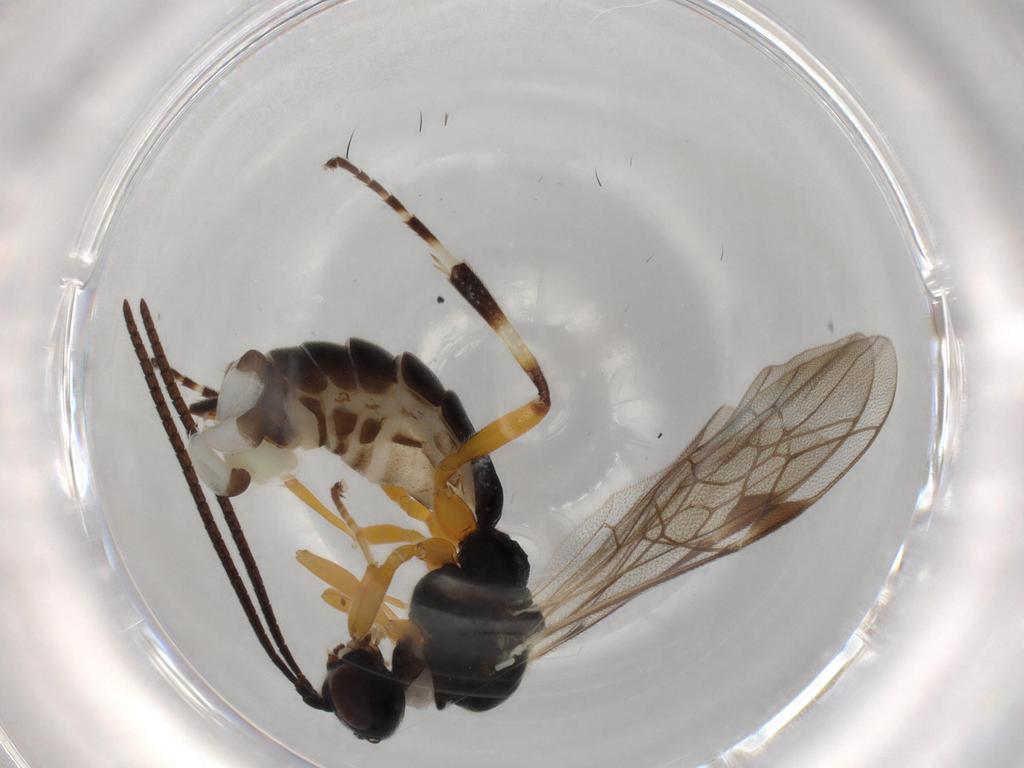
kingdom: Animalia
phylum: Arthropoda
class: Insecta
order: Hymenoptera
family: Ichneumonidae
